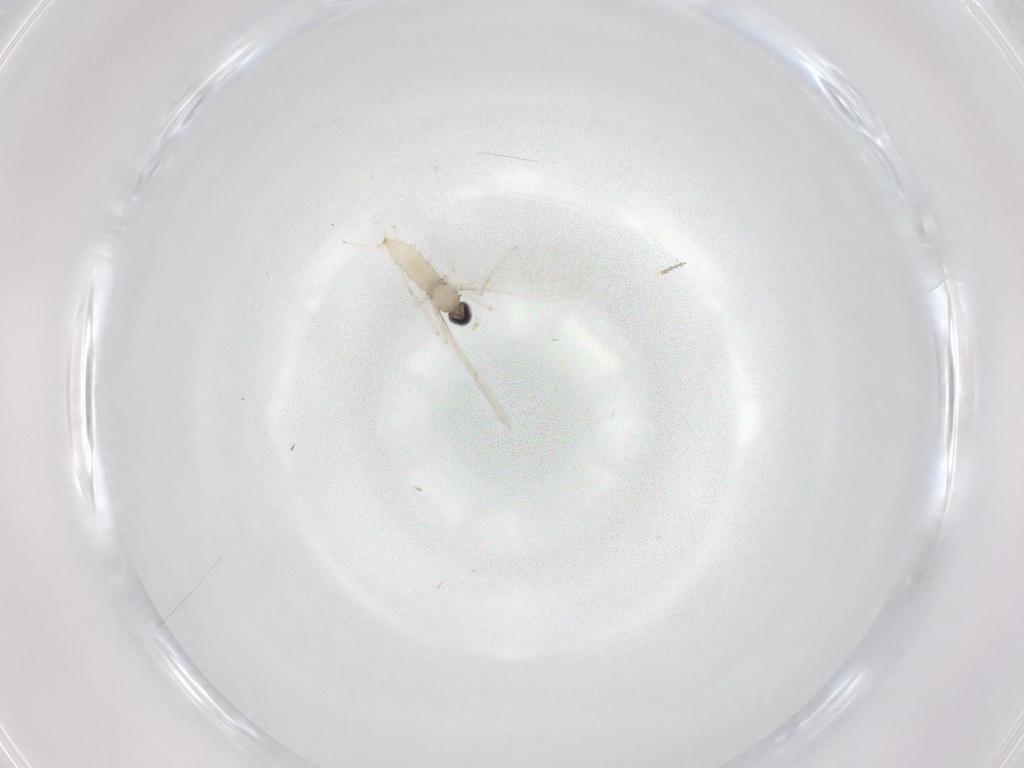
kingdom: Animalia
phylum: Arthropoda
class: Insecta
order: Diptera
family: Cecidomyiidae
